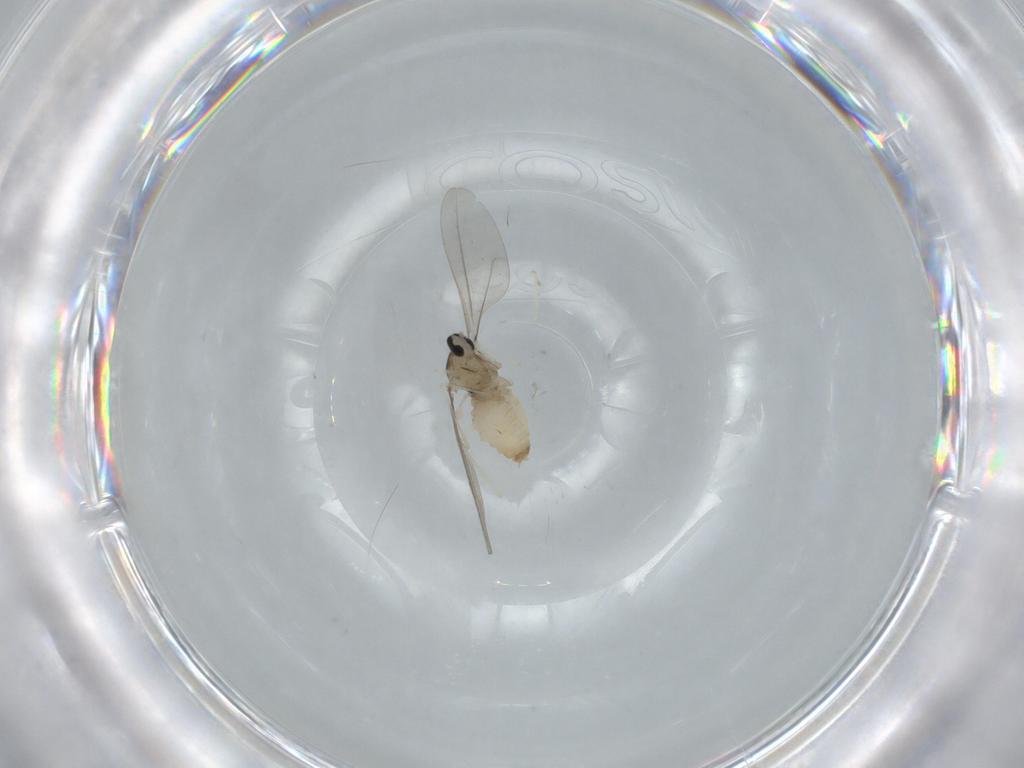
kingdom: Animalia
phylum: Arthropoda
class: Insecta
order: Diptera
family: Cecidomyiidae
